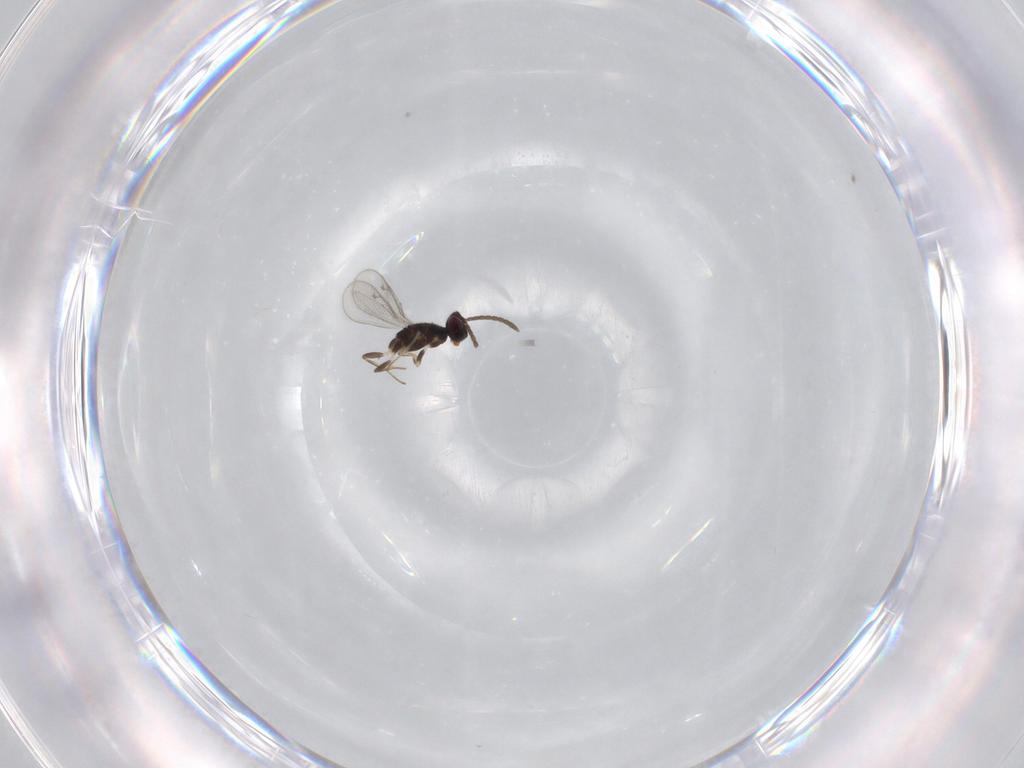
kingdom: Animalia
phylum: Arthropoda
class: Insecta
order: Hymenoptera
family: Eupelmidae
